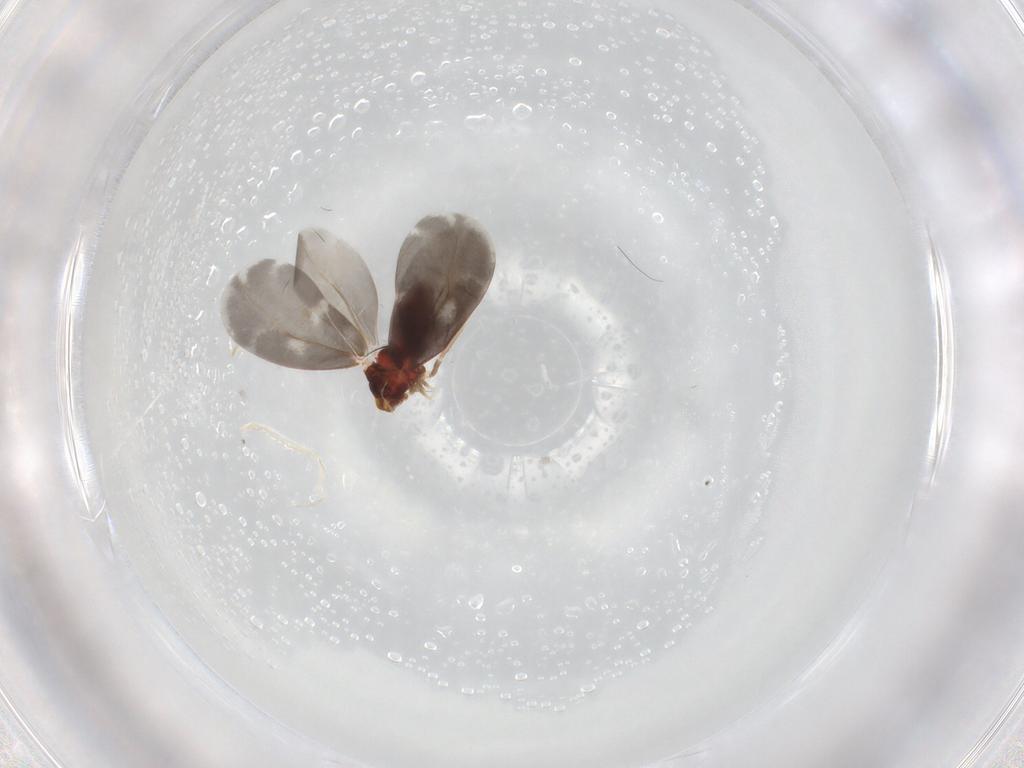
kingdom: Animalia
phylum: Arthropoda
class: Insecta
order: Hemiptera
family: Aleyrodidae
